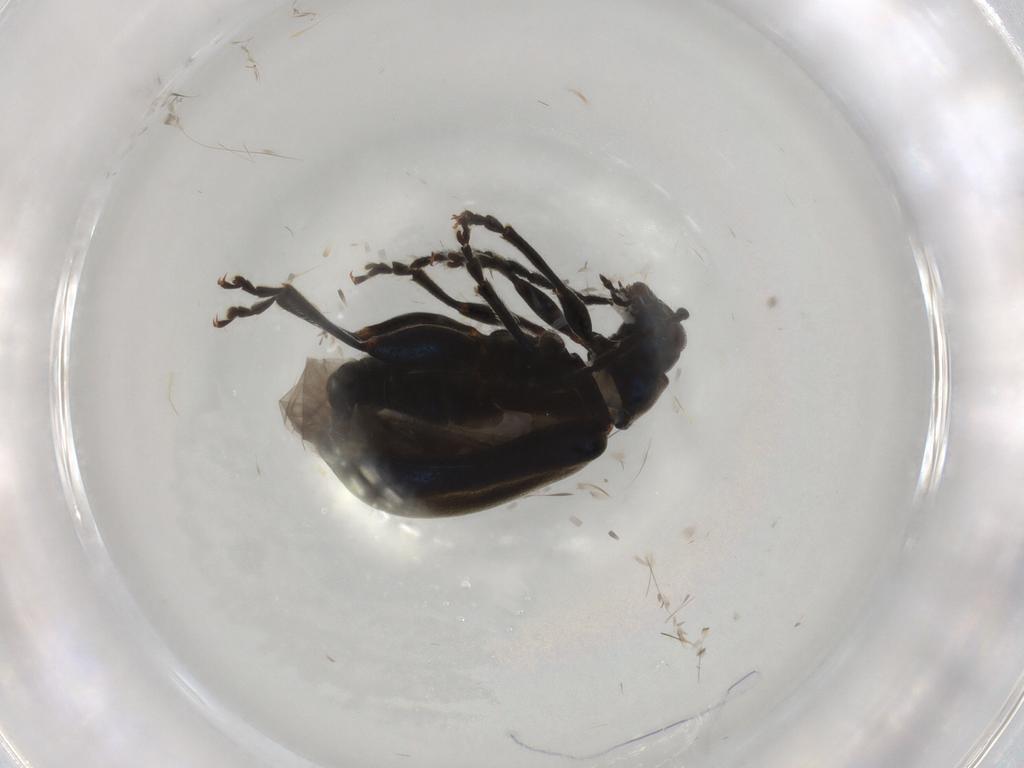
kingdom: Animalia
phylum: Arthropoda
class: Insecta
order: Coleoptera
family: Chrysomelidae
